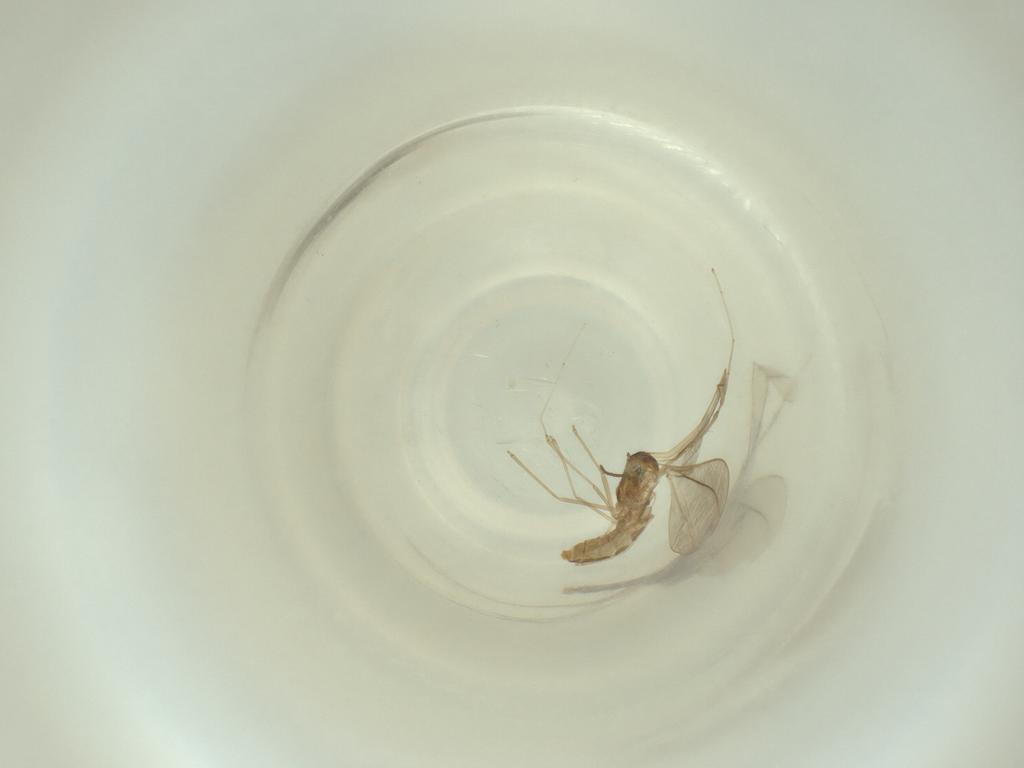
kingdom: Animalia
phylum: Arthropoda
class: Insecta
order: Diptera
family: Cecidomyiidae
